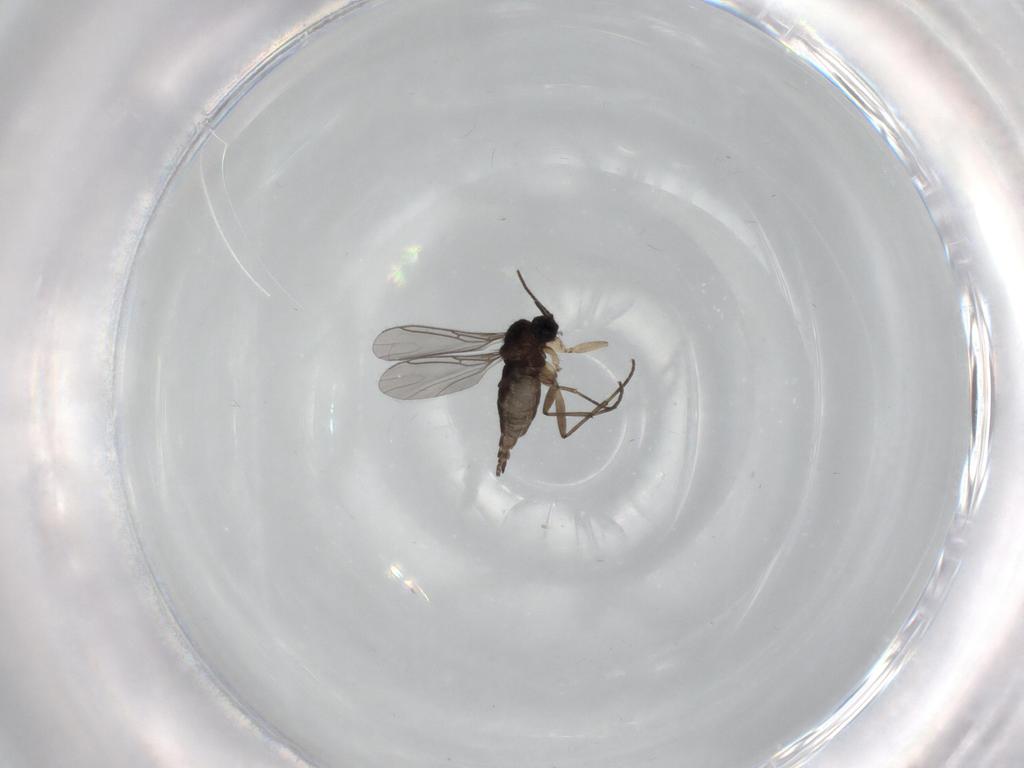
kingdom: Animalia
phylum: Arthropoda
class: Insecta
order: Diptera
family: Sciaridae
